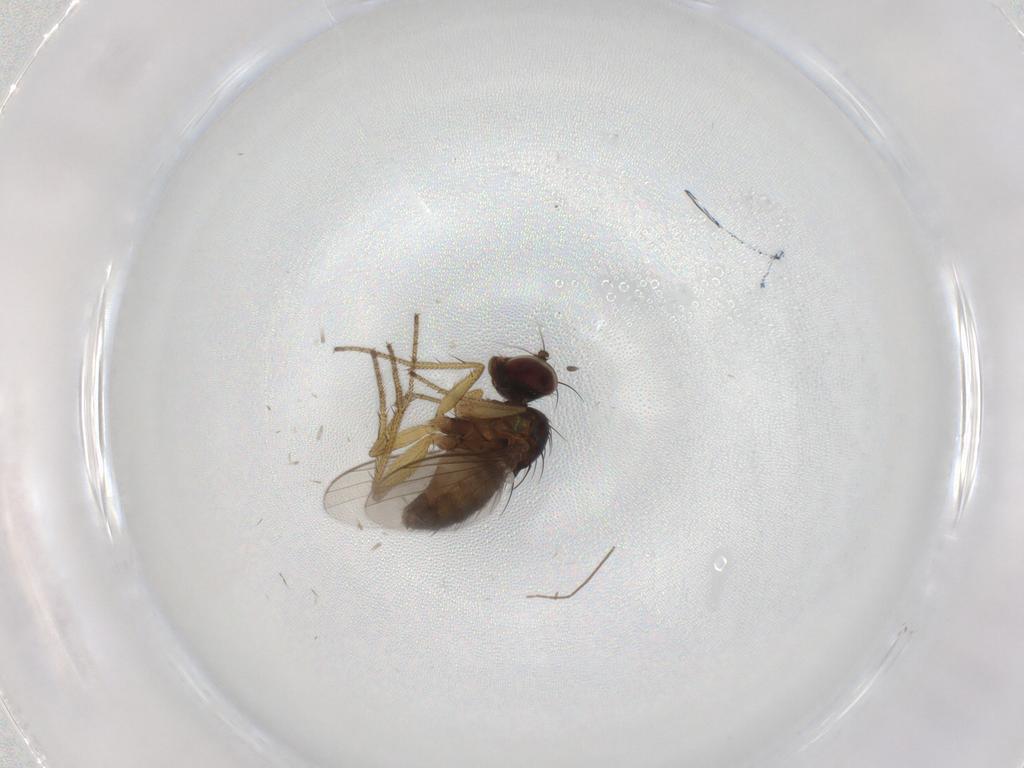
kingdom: Animalia
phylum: Arthropoda
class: Insecta
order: Diptera
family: Dolichopodidae
